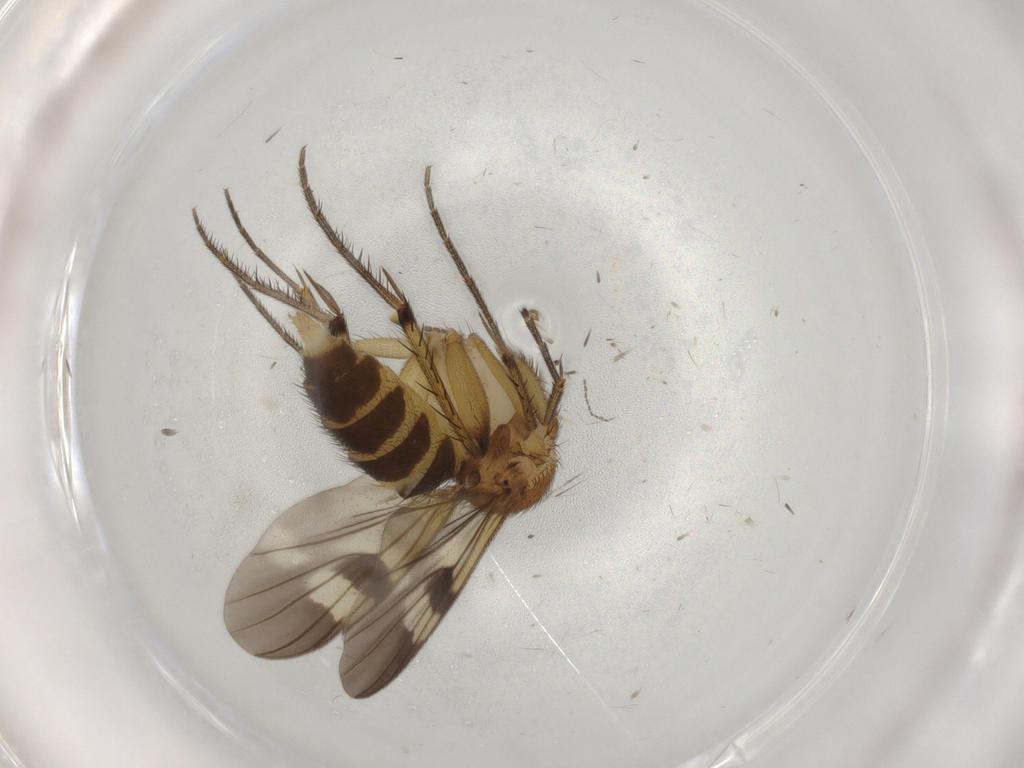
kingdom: Animalia
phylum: Arthropoda
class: Insecta
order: Diptera
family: Mycetophilidae
